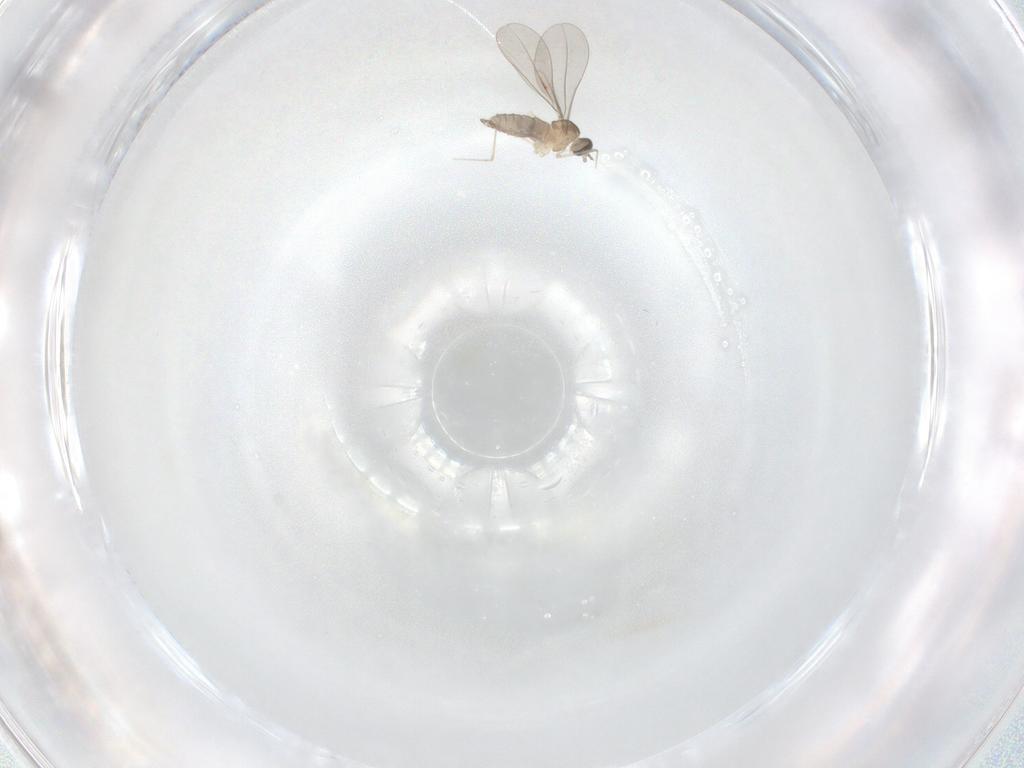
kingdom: Animalia
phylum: Arthropoda
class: Insecta
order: Diptera
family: Cecidomyiidae
